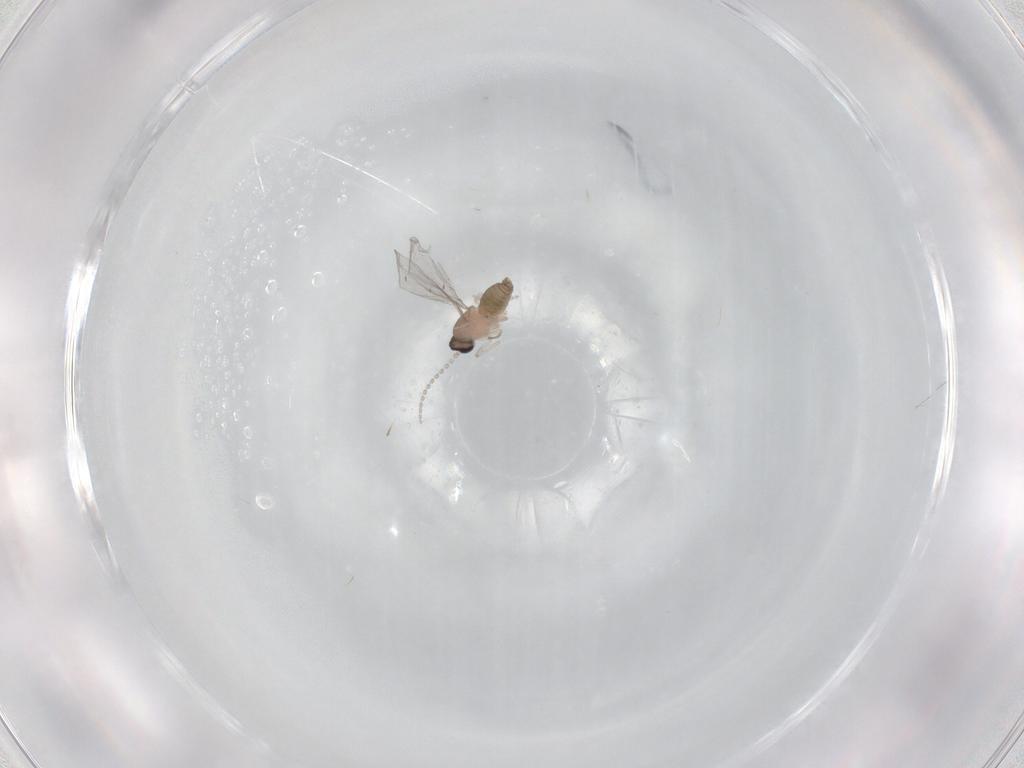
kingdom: Animalia
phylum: Arthropoda
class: Insecta
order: Diptera
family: Cecidomyiidae
